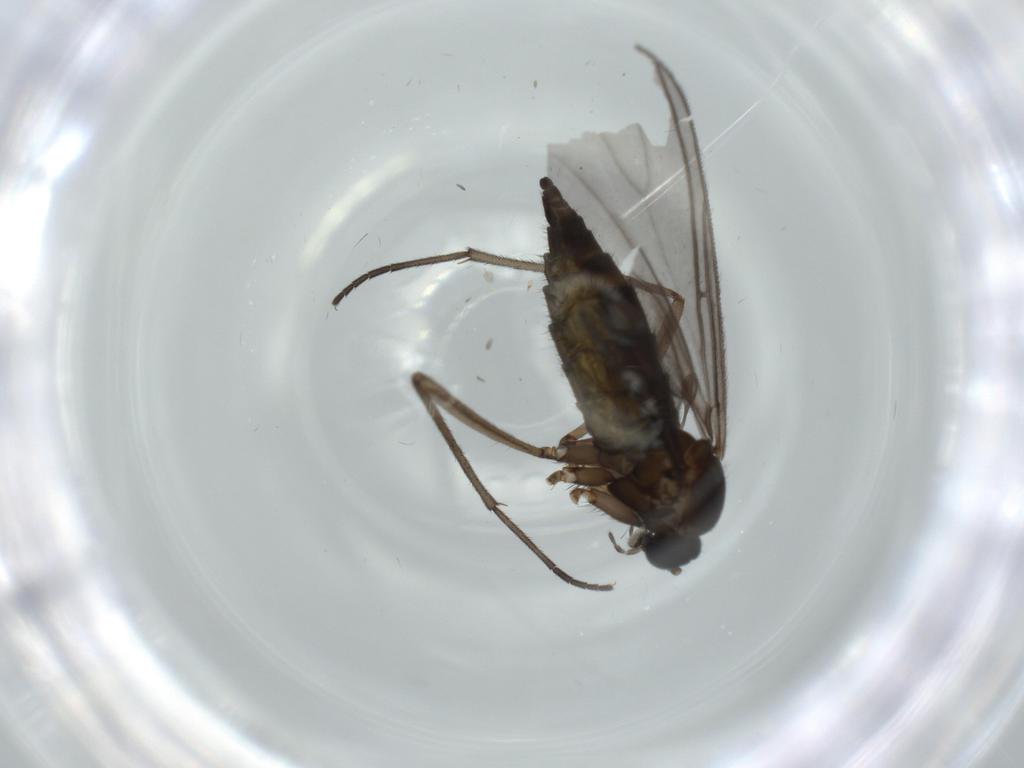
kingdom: Animalia
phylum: Arthropoda
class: Insecta
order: Diptera
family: Sciaridae
